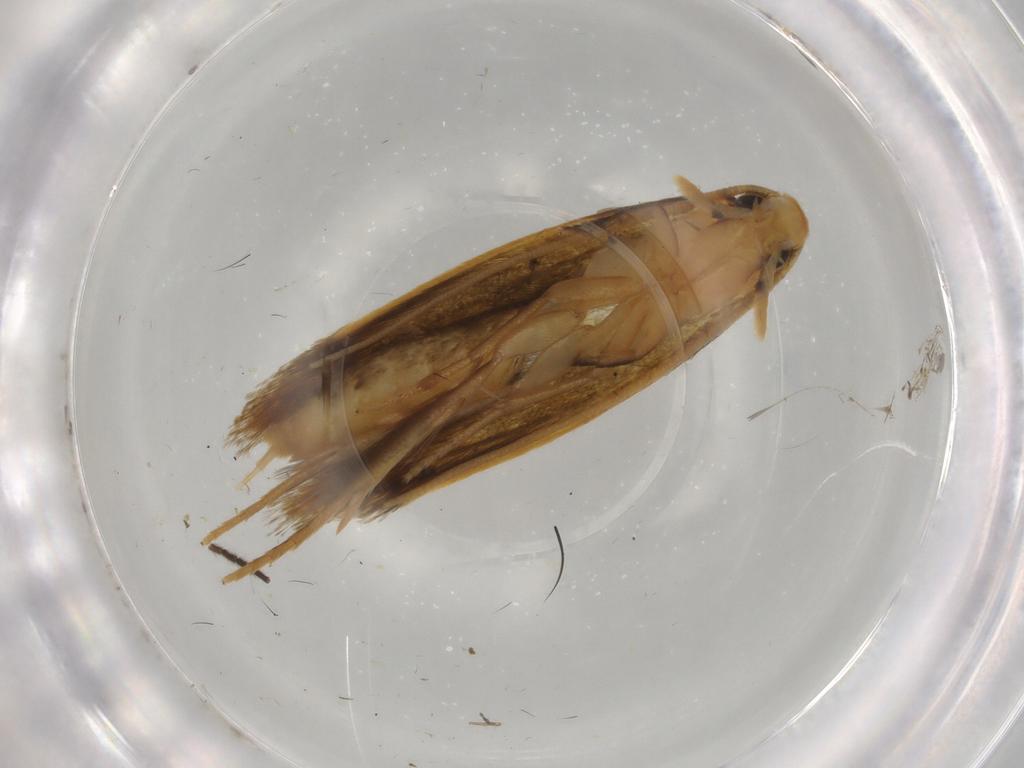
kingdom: Animalia
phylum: Arthropoda
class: Insecta
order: Lepidoptera
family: Tineidae
